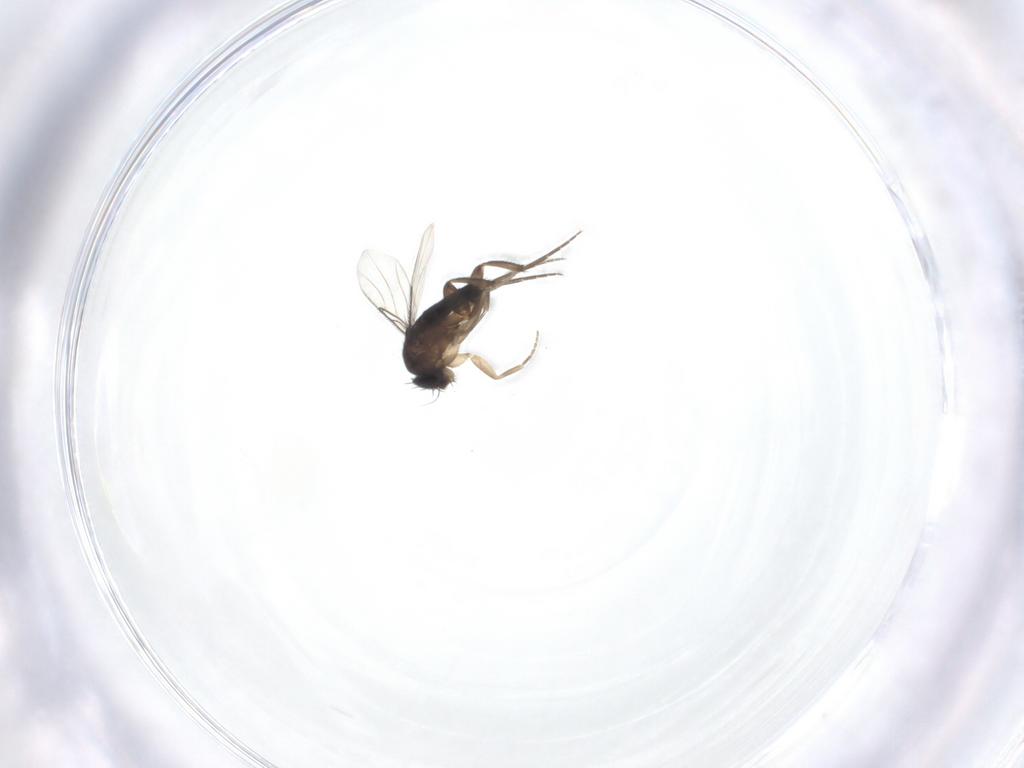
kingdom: Animalia
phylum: Arthropoda
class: Insecta
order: Diptera
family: Phoridae
